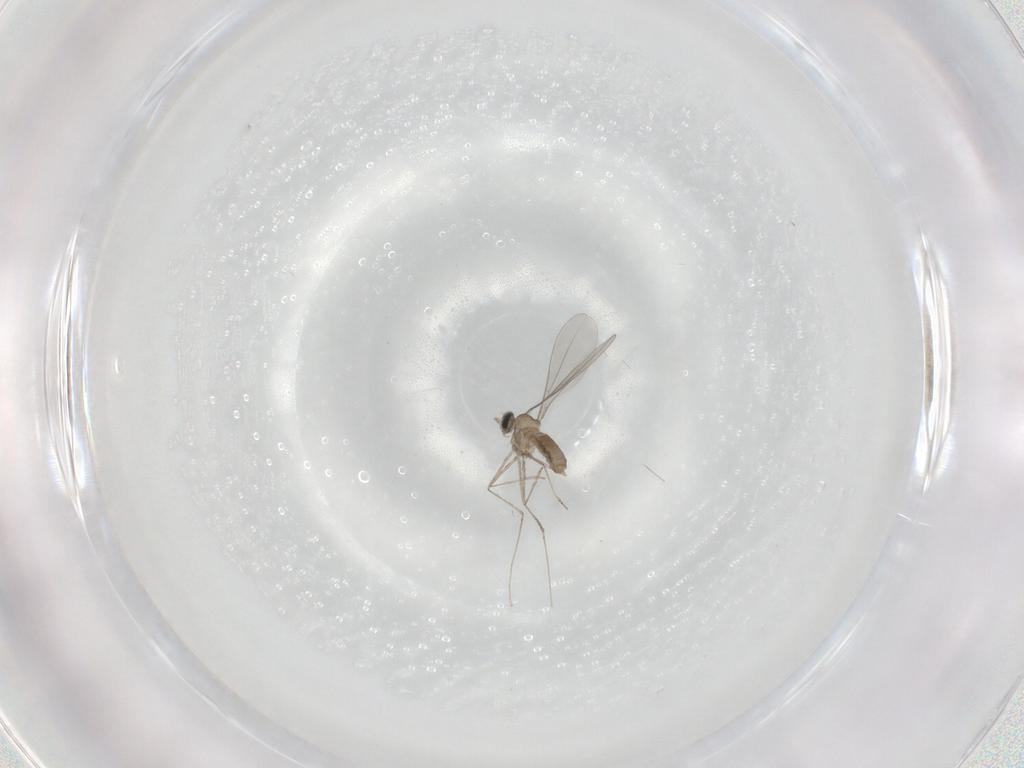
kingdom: Animalia
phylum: Arthropoda
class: Insecta
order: Diptera
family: Cecidomyiidae
